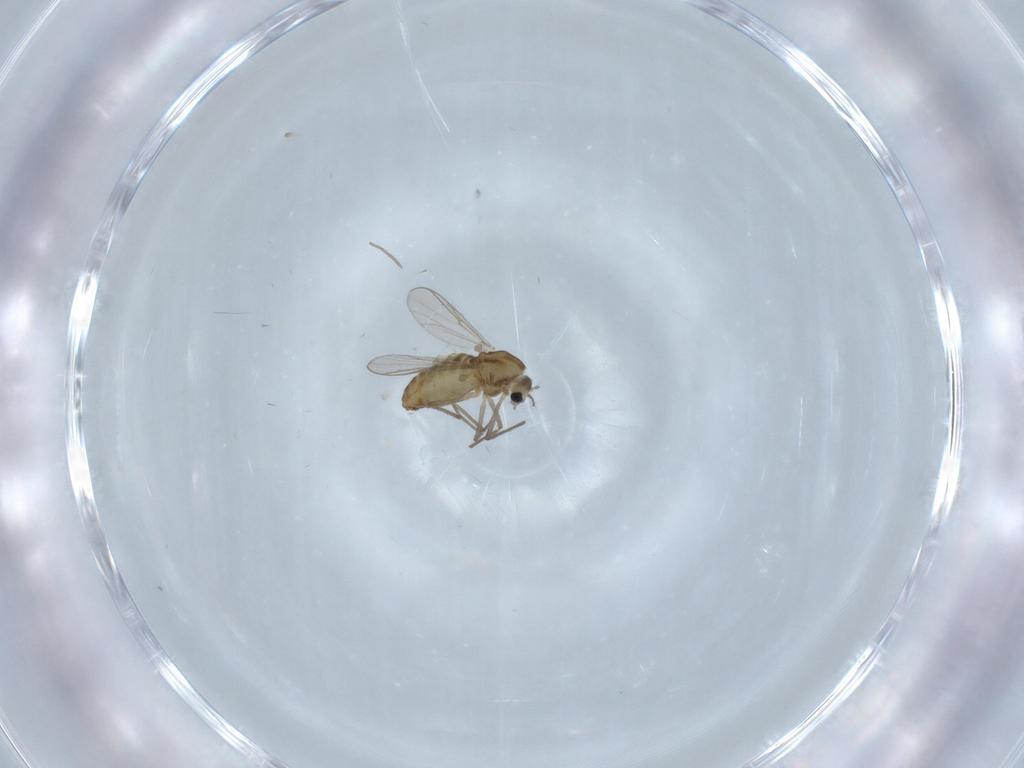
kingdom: Animalia
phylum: Arthropoda
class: Insecta
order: Diptera
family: Chironomidae
